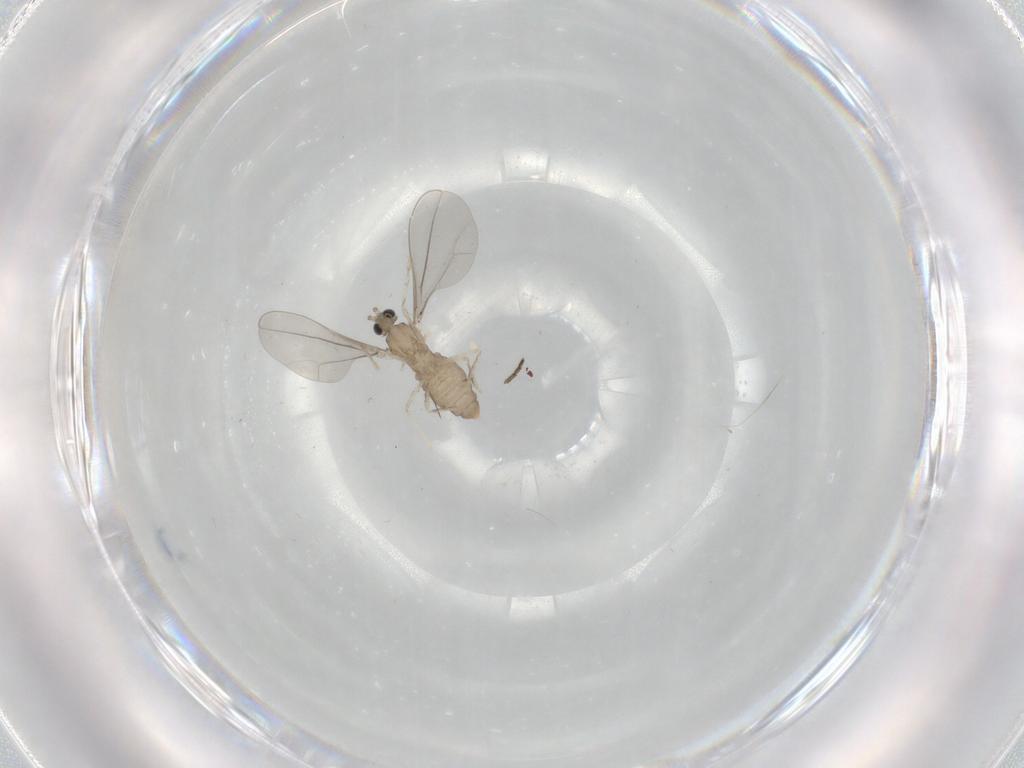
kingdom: Animalia
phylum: Arthropoda
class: Insecta
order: Diptera
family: Cecidomyiidae
